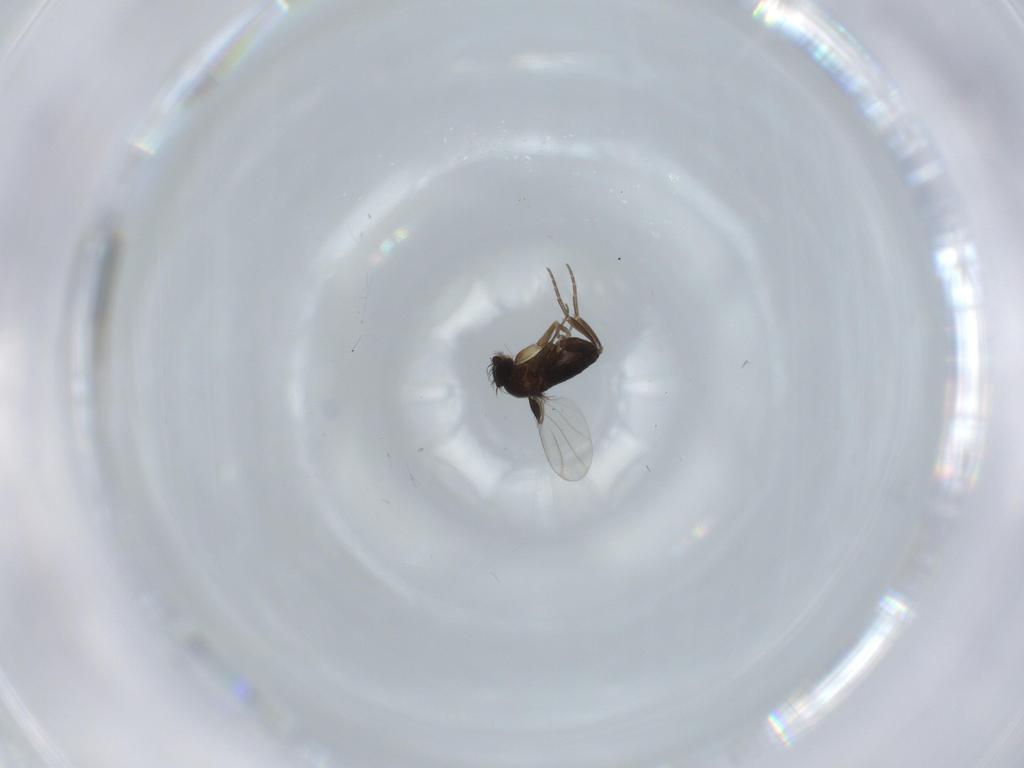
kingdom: Animalia
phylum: Arthropoda
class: Insecta
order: Diptera
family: Phoridae
